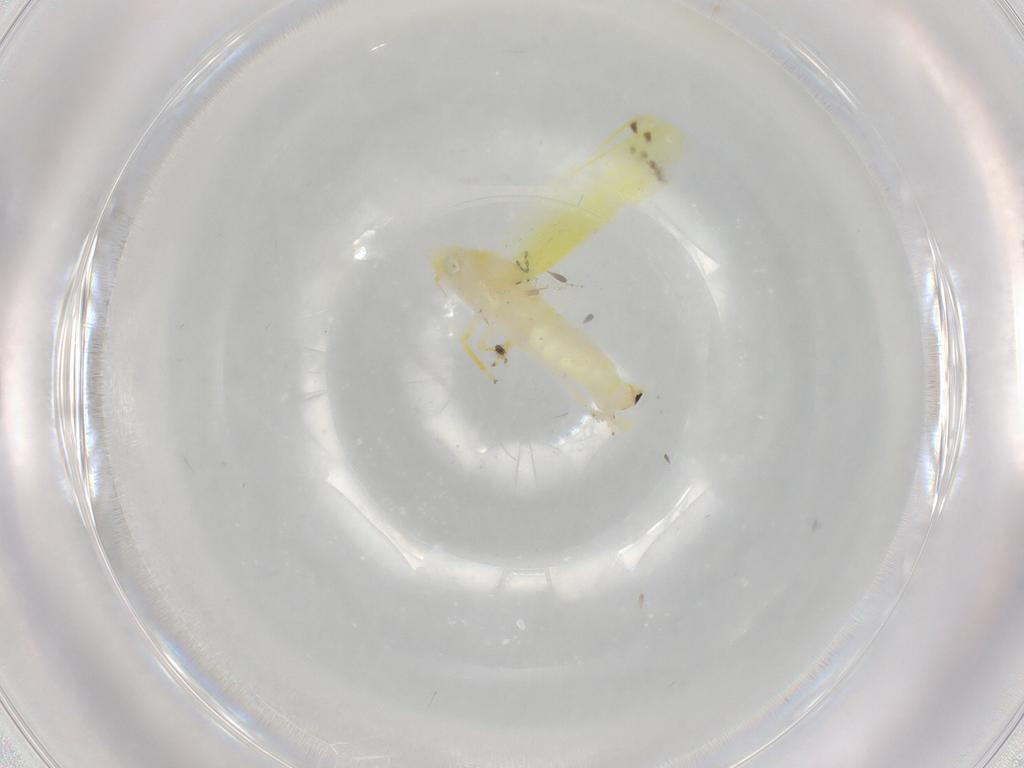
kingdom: Animalia
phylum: Arthropoda
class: Insecta
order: Hemiptera
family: Cicadellidae
